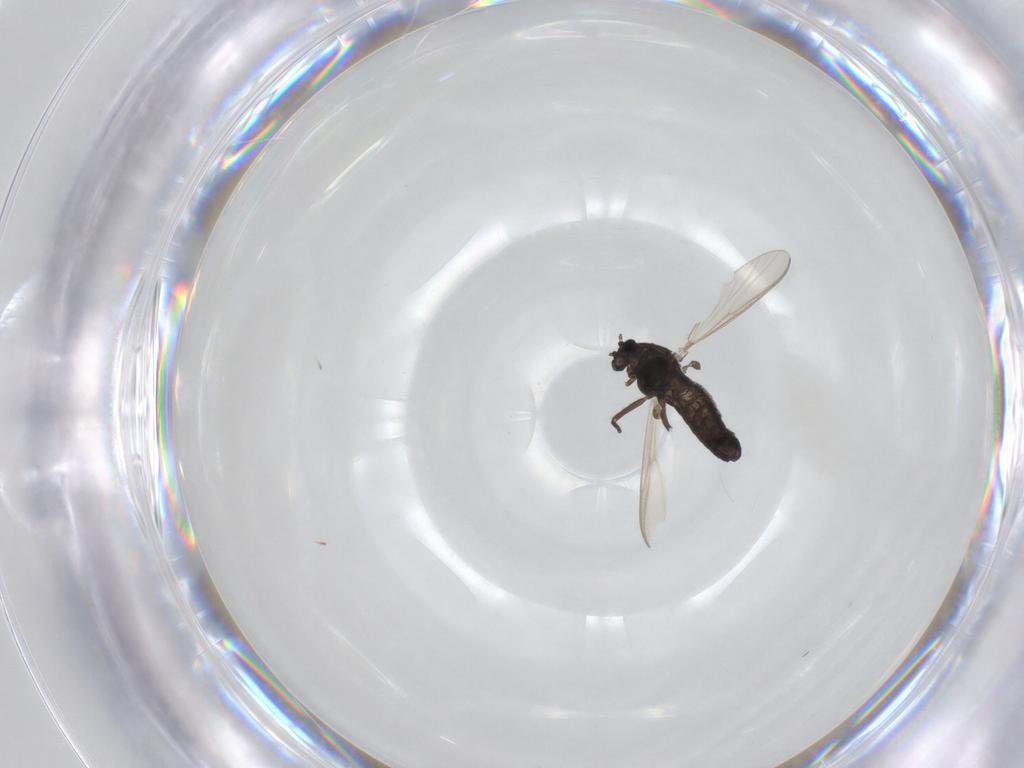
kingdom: Animalia
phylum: Arthropoda
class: Insecta
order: Diptera
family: Chironomidae
